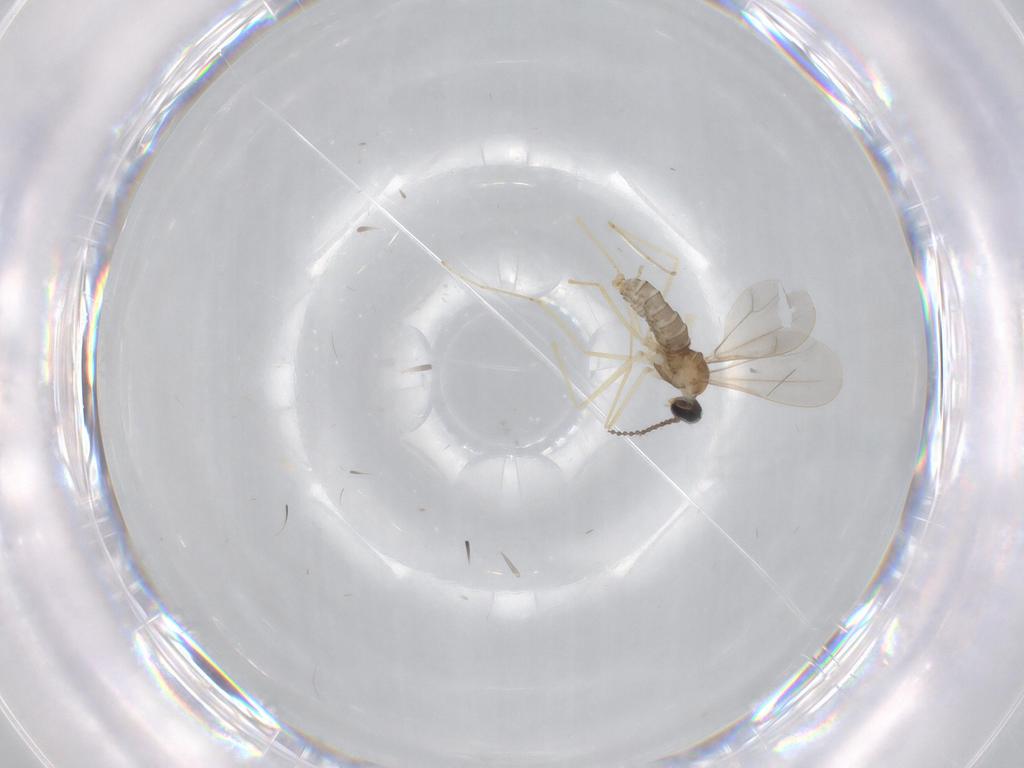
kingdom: Animalia
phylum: Arthropoda
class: Insecta
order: Diptera
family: Cecidomyiidae
